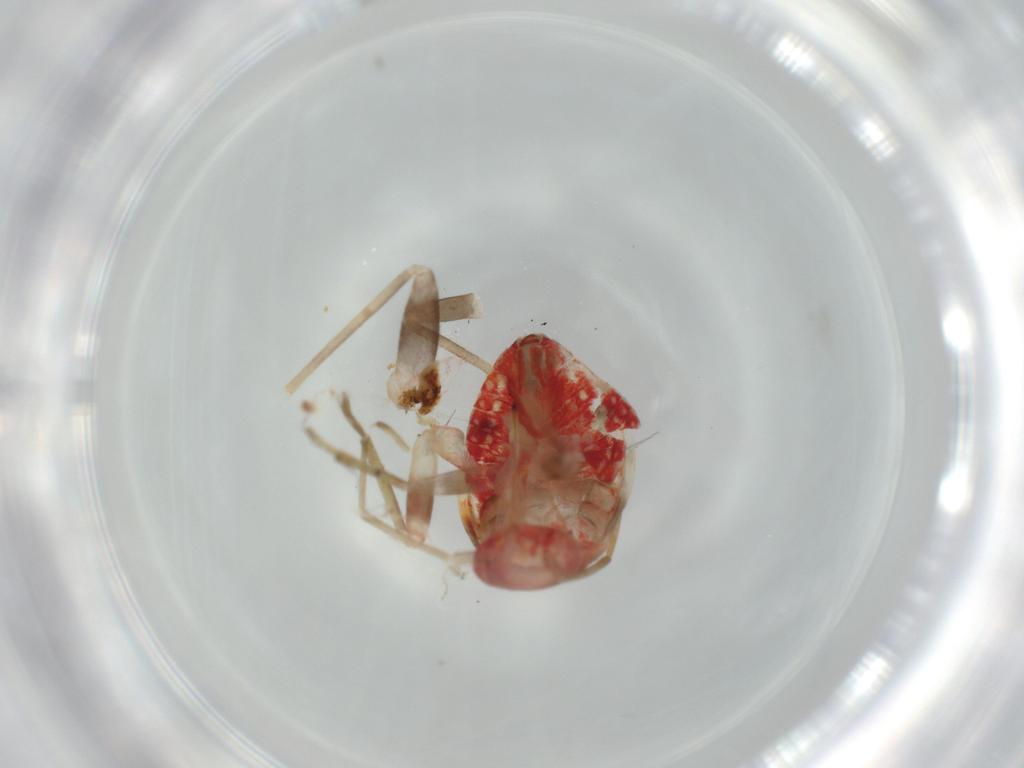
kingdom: Animalia
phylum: Arthropoda
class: Insecta
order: Hemiptera
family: Miridae
